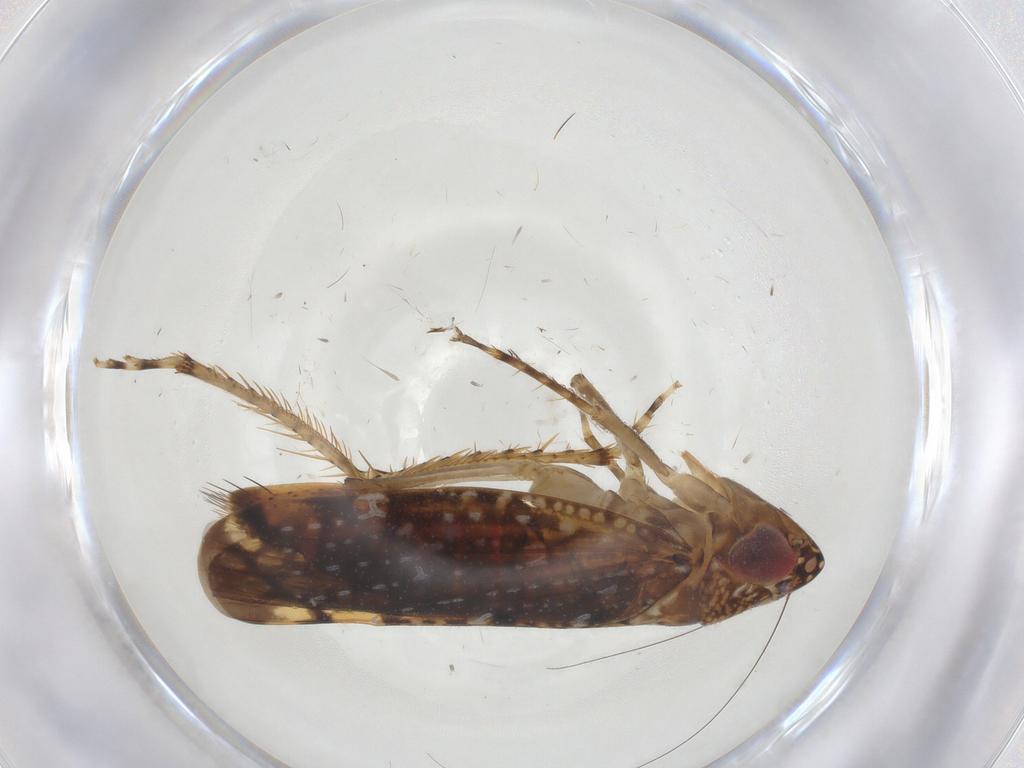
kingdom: Animalia
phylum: Arthropoda
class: Insecta
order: Hemiptera
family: Cicadellidae
